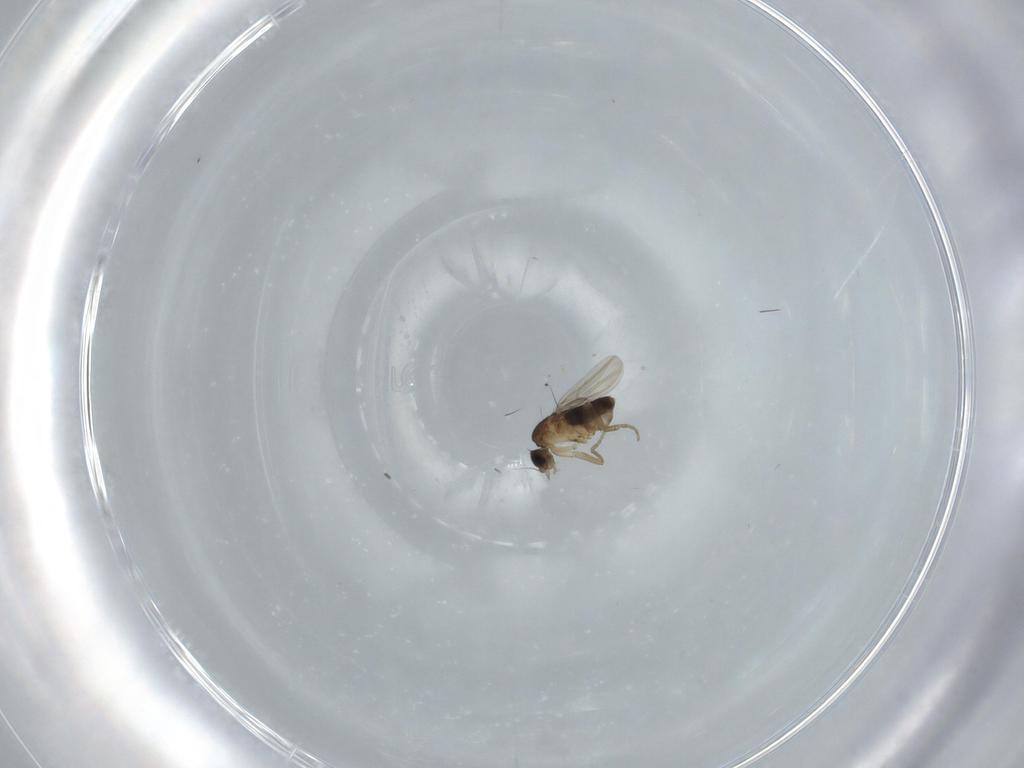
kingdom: Animalia
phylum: Arthropoda
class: Insecta
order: Diptera
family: Phoridae
